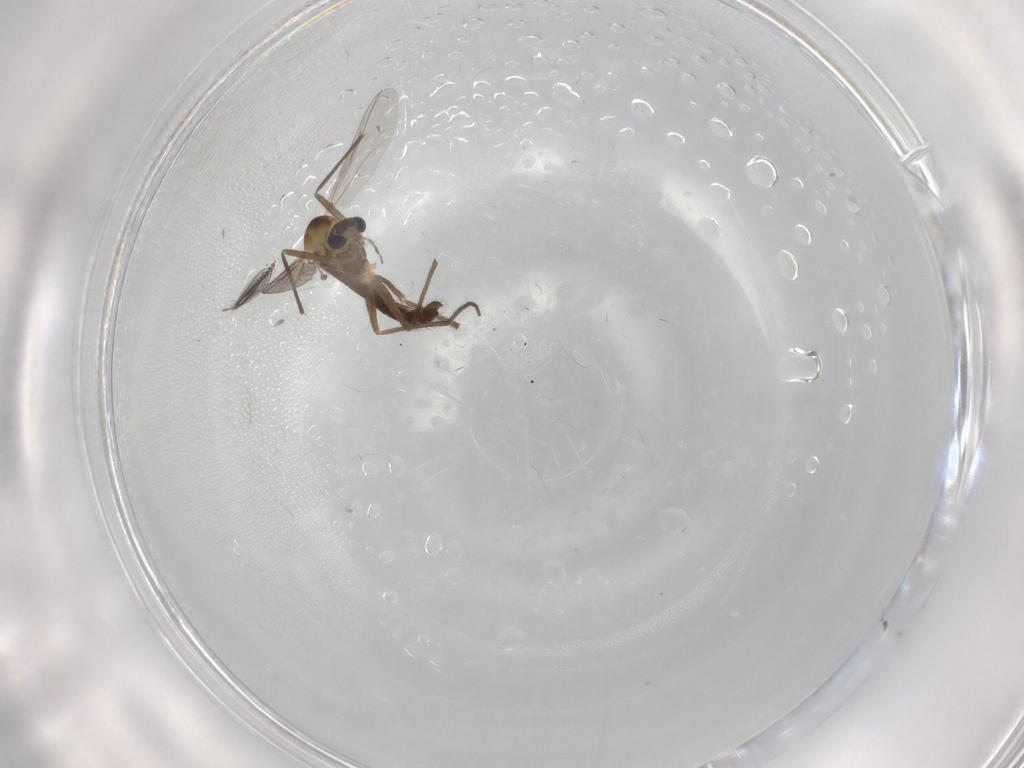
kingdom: Animalia
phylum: Arthropoda
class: Insecta
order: Diptera
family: Chironomidae
